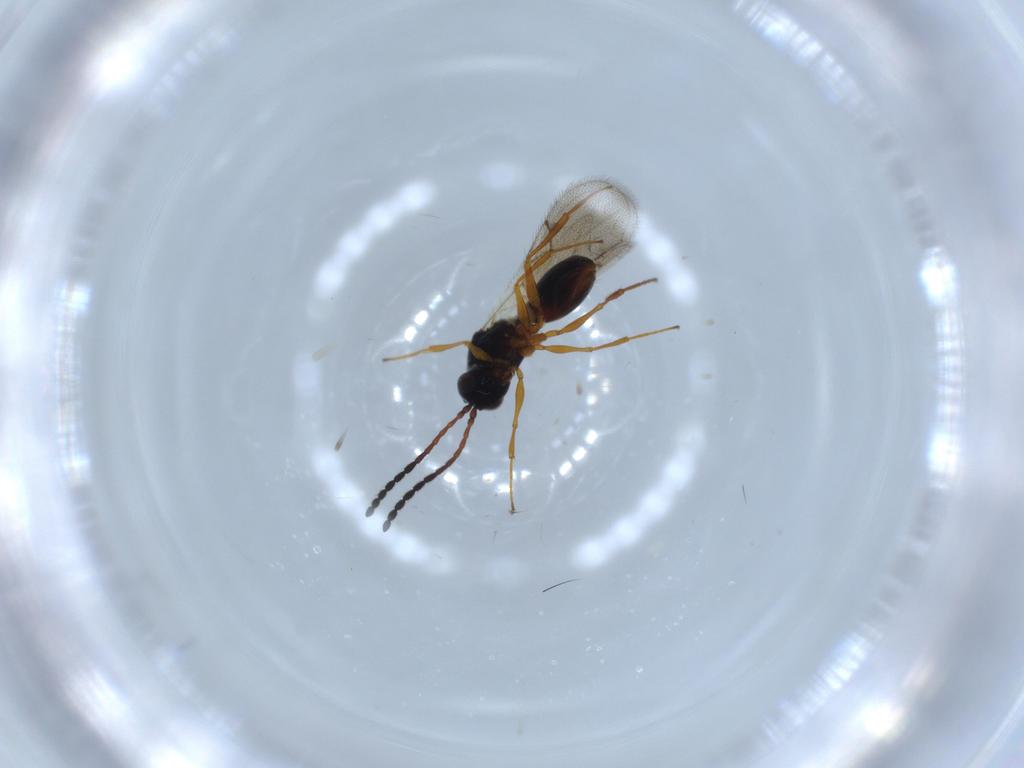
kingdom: Animalia
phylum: Arthropoda
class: Insecta
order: Hymenoptera
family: Figitidae
